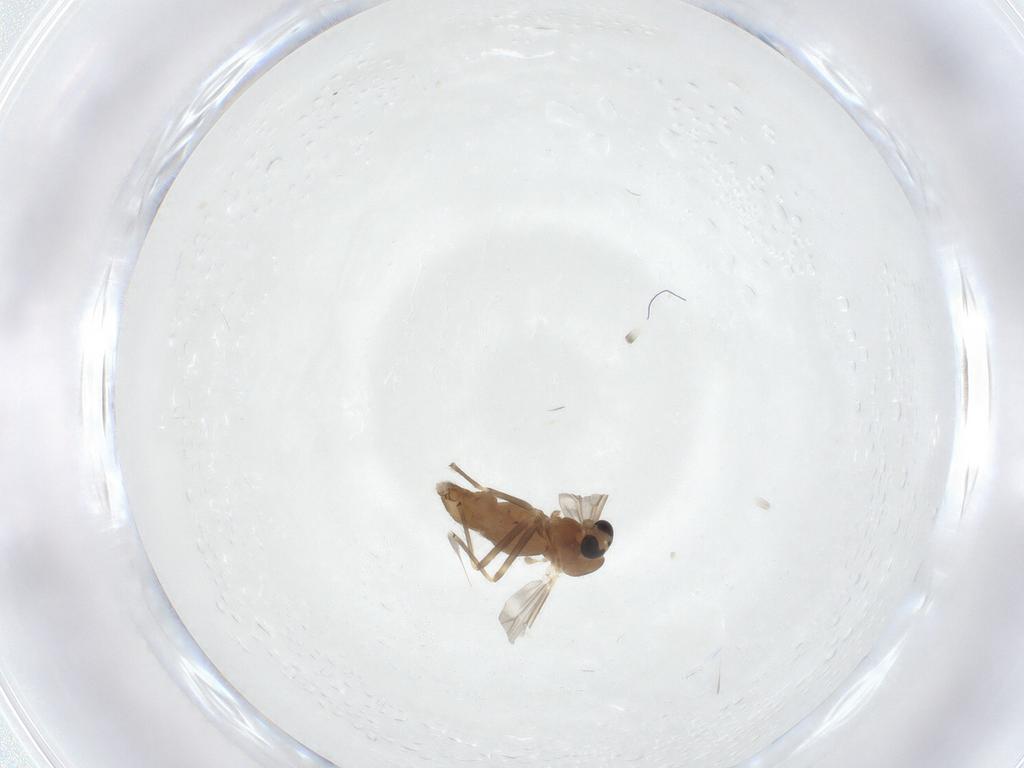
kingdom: Animalia
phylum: Arthropoda
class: Insecta
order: Diptera
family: Chironomidae
